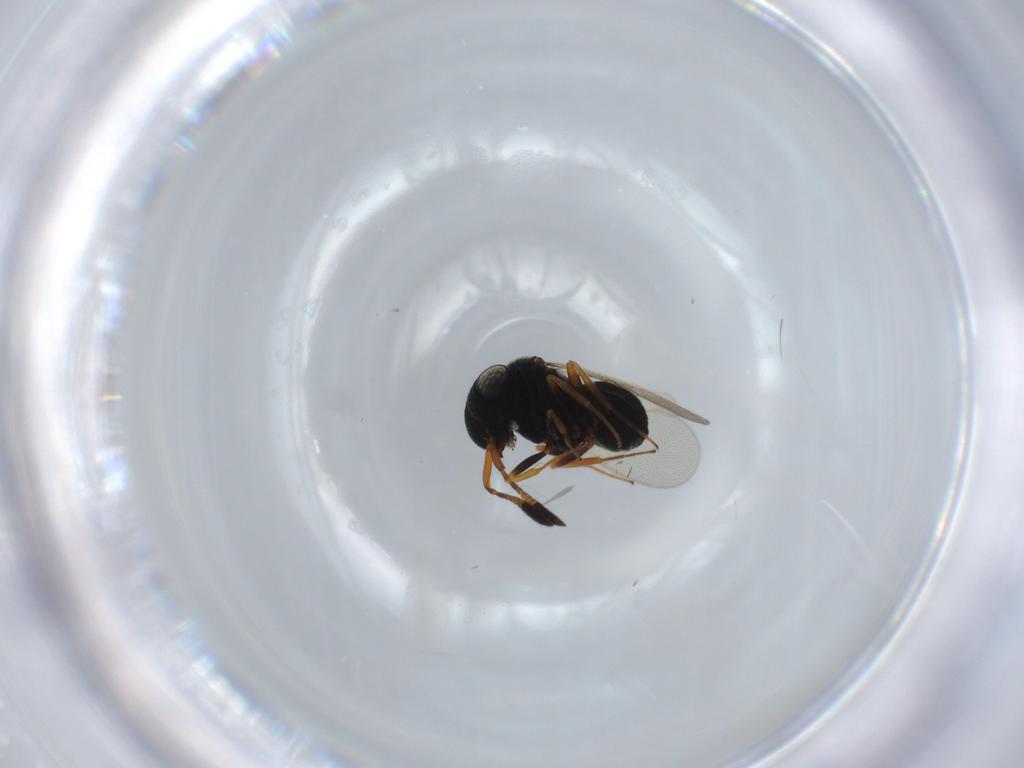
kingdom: Animalia
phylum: Arthropoda
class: Insecta
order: Hymenoptera
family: Scelionidae
